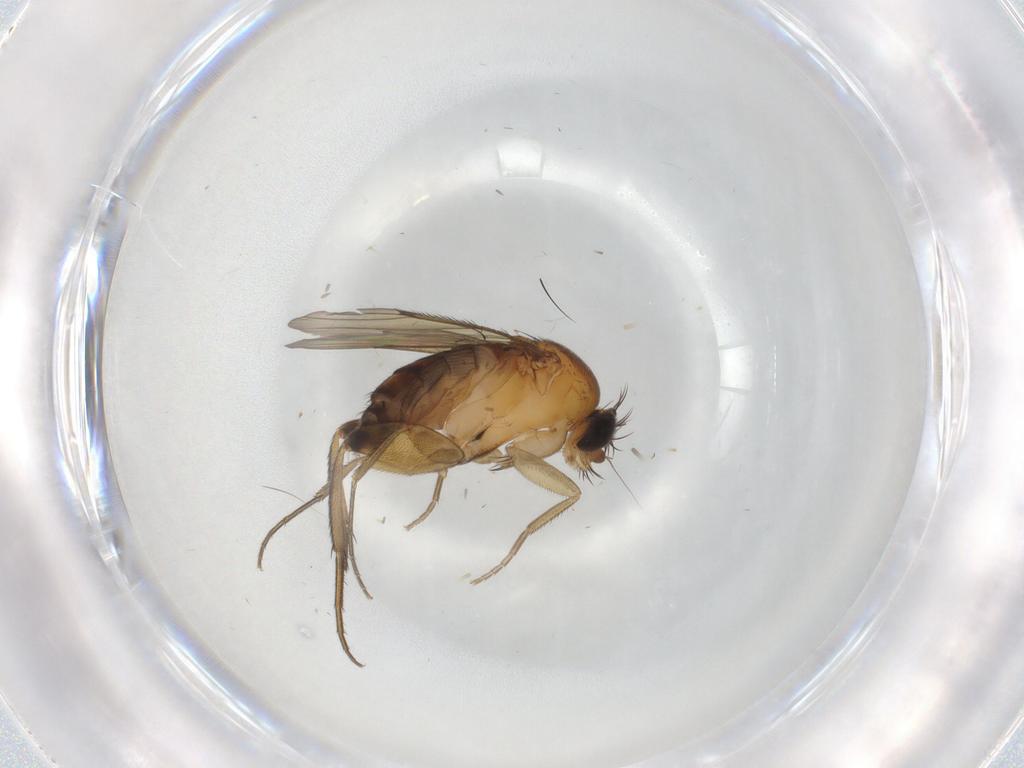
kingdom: Animalia
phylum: Arthropoda
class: Insecta
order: Diptera
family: Phoridae
